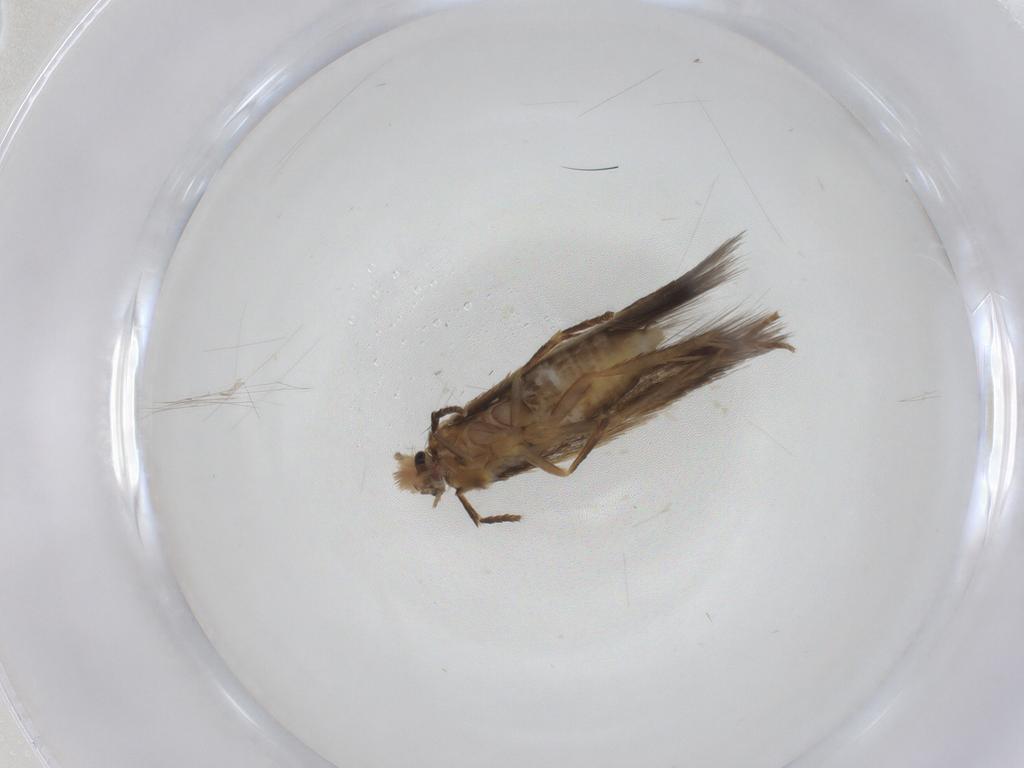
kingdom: Animalia
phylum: Arthropoda
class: Insecta
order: Lepidoptera
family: Nepticulidae
